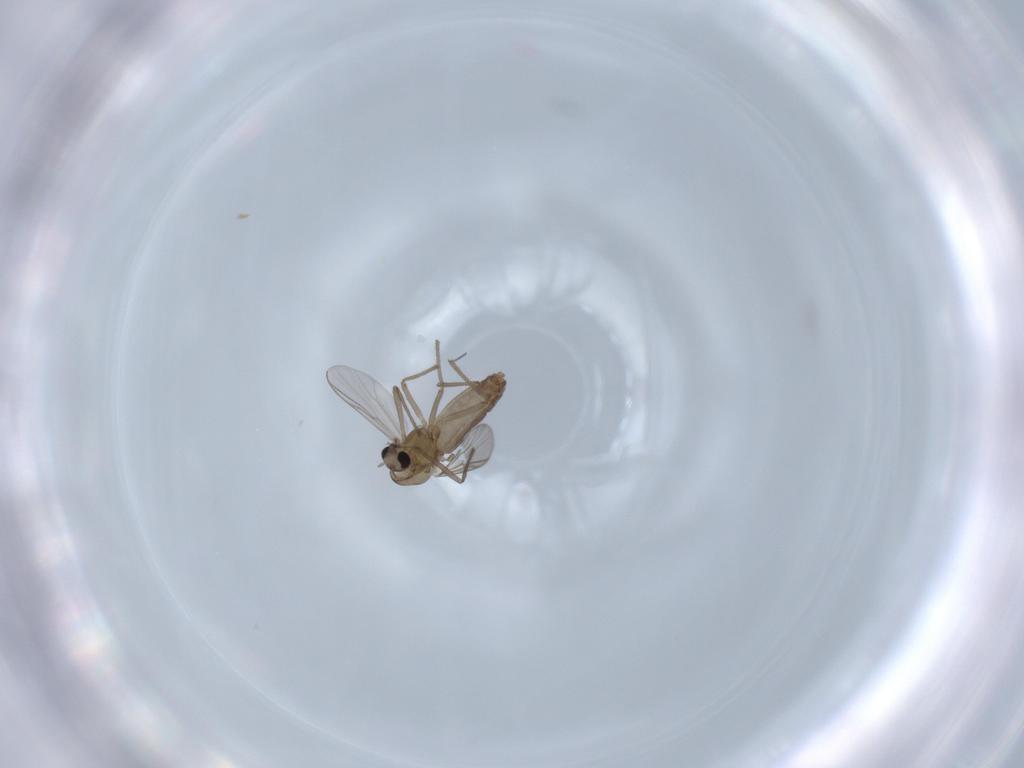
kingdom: Animalia
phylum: Arthropoda
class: Insecta
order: Diptera
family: Chironomidae
